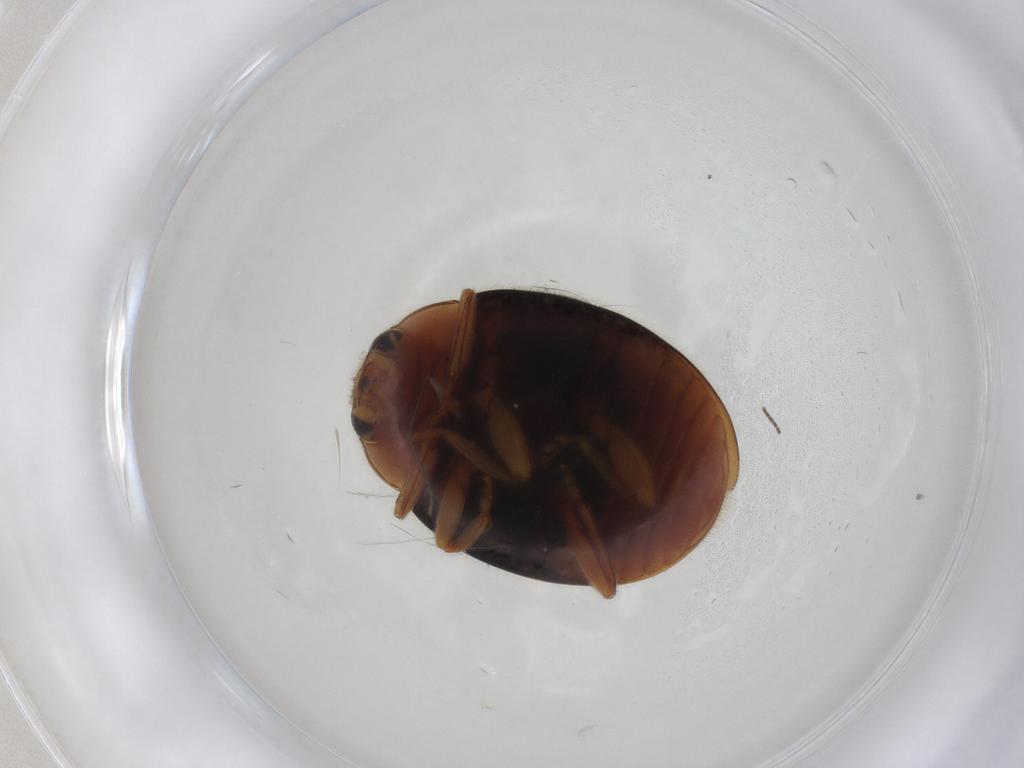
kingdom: Animalia
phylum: Arthropoda
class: Insecta
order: Coleoptera
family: Coccinellidae
